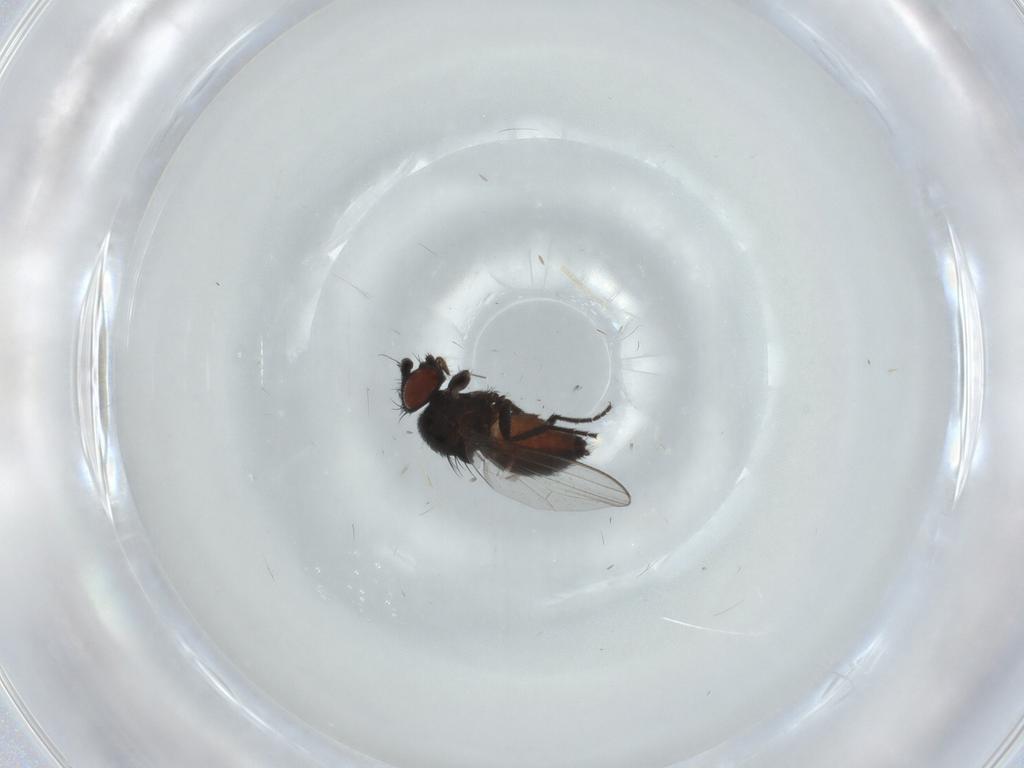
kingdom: Animalia
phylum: Arthropoda
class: Insecta
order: Diptera
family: Milichiidae
